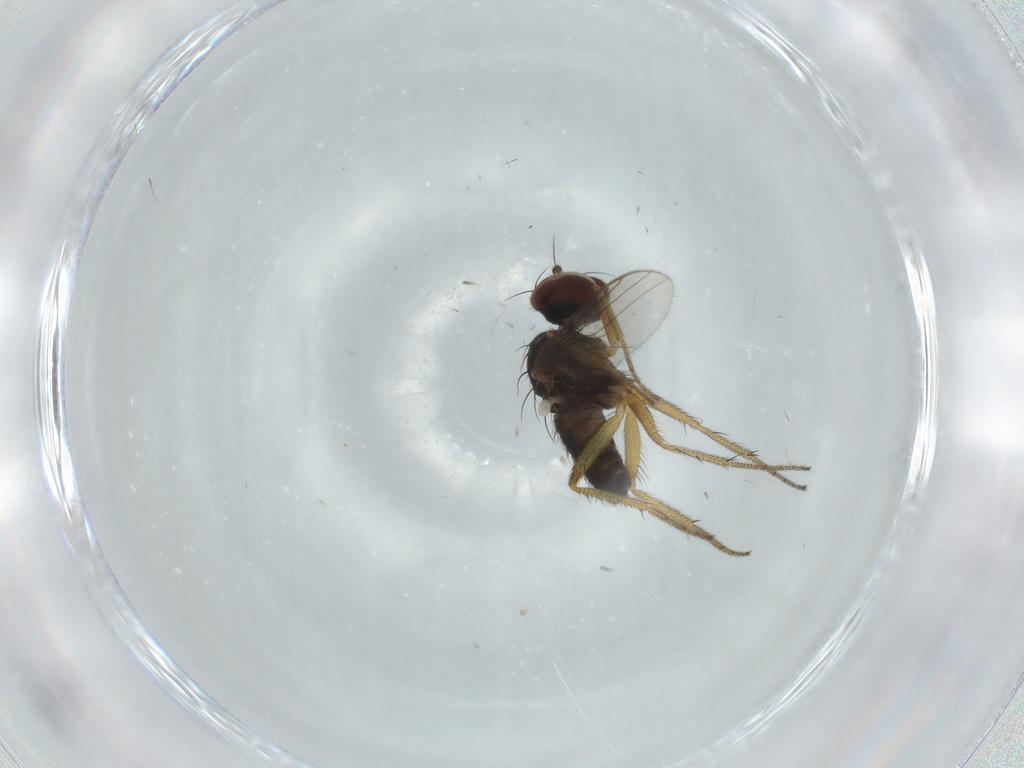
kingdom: Animalia
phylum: Arthropoda
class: Insecta
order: Diptera
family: Dolichopodidae
